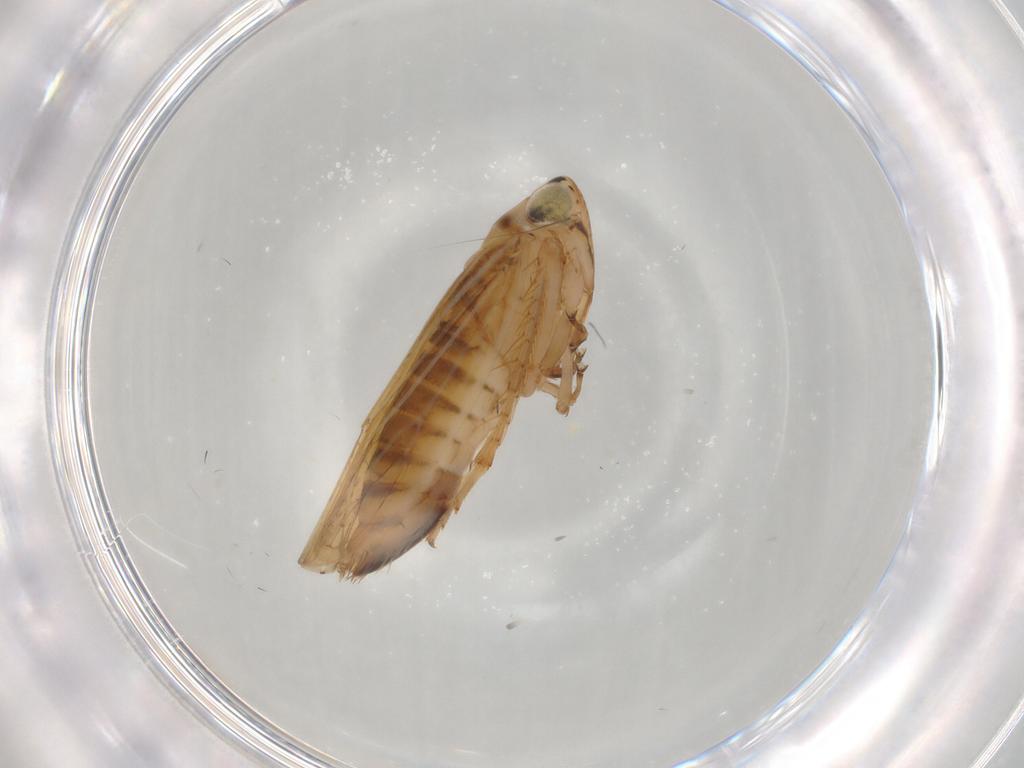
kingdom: Animalia
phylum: Arthropoda
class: Insecta
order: Hemiptera
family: Cicadellidae
